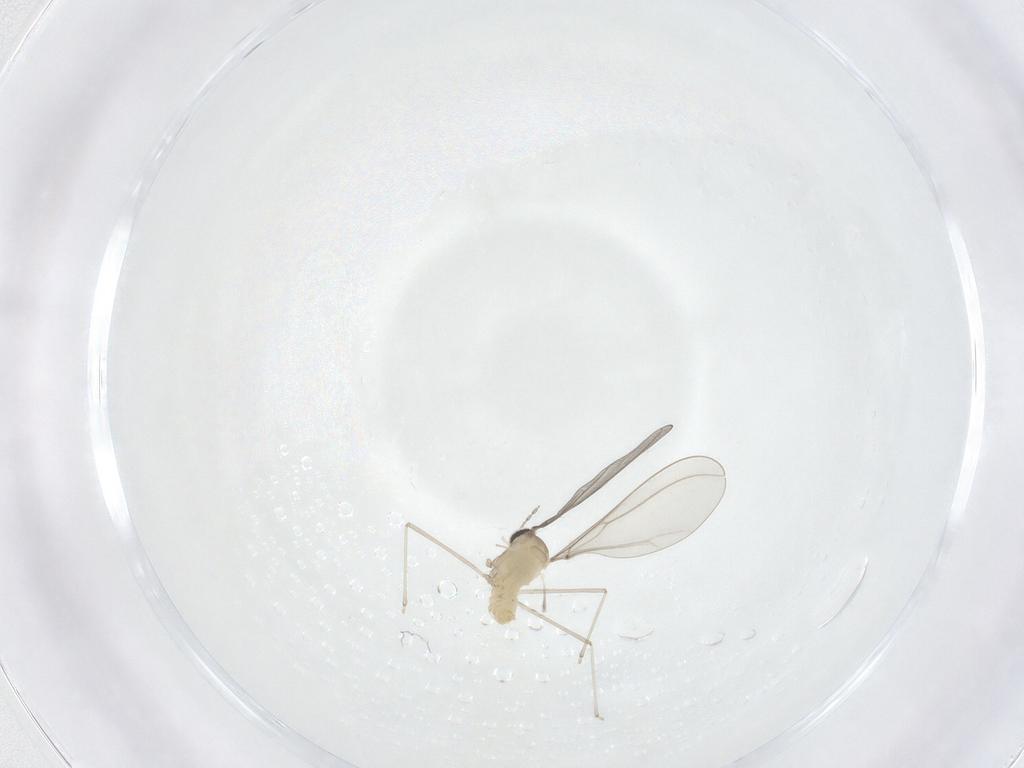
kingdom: Animalia
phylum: Arthropoda
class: Insecta
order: Diptera
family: Cecidomyiidae
